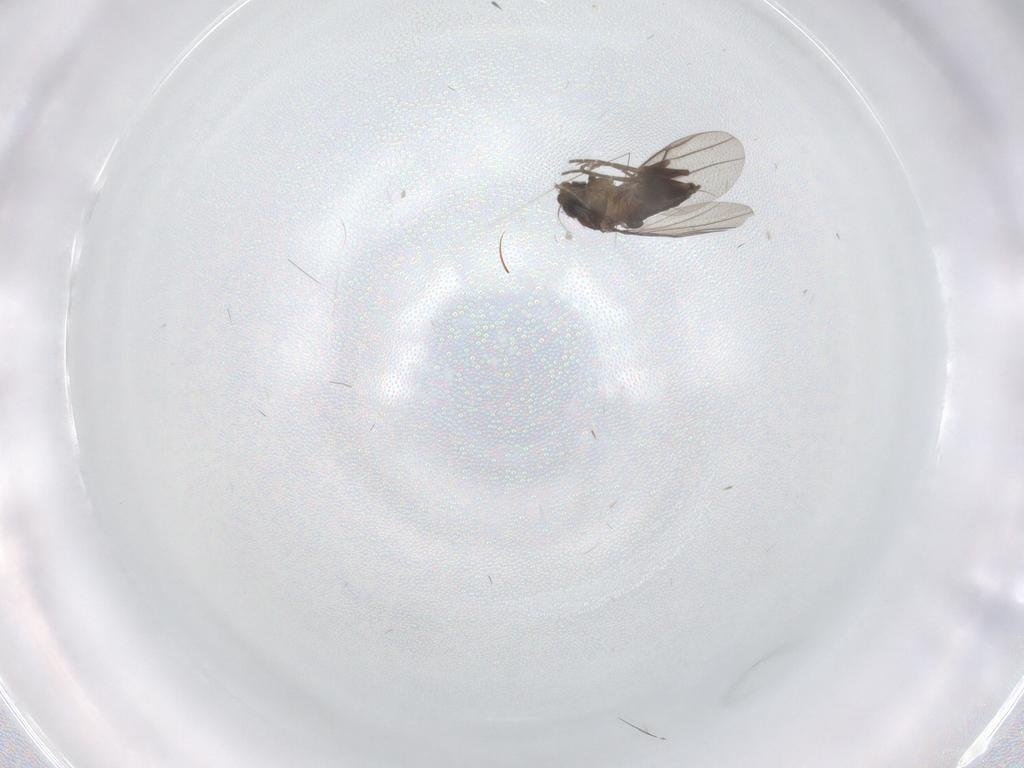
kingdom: Animalia
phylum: Arthropoda
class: Insecta
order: Diptera
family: Phoridae
